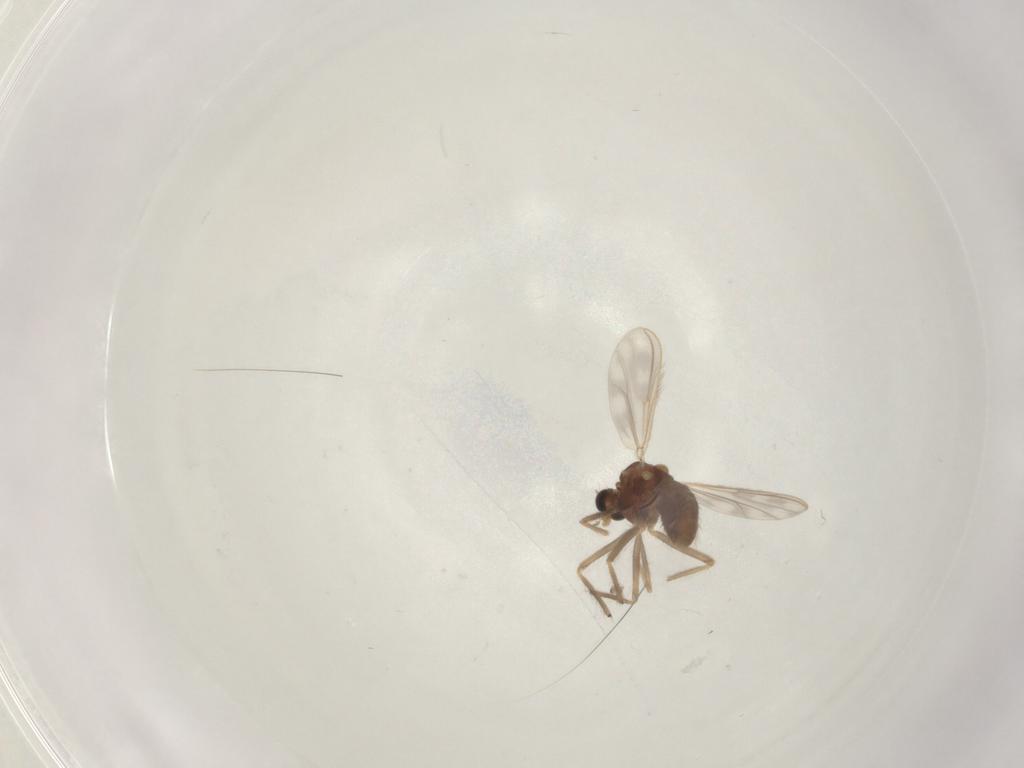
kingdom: Animalia
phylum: Arthropoda
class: Insecta
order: Diptera
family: Chironomidae
